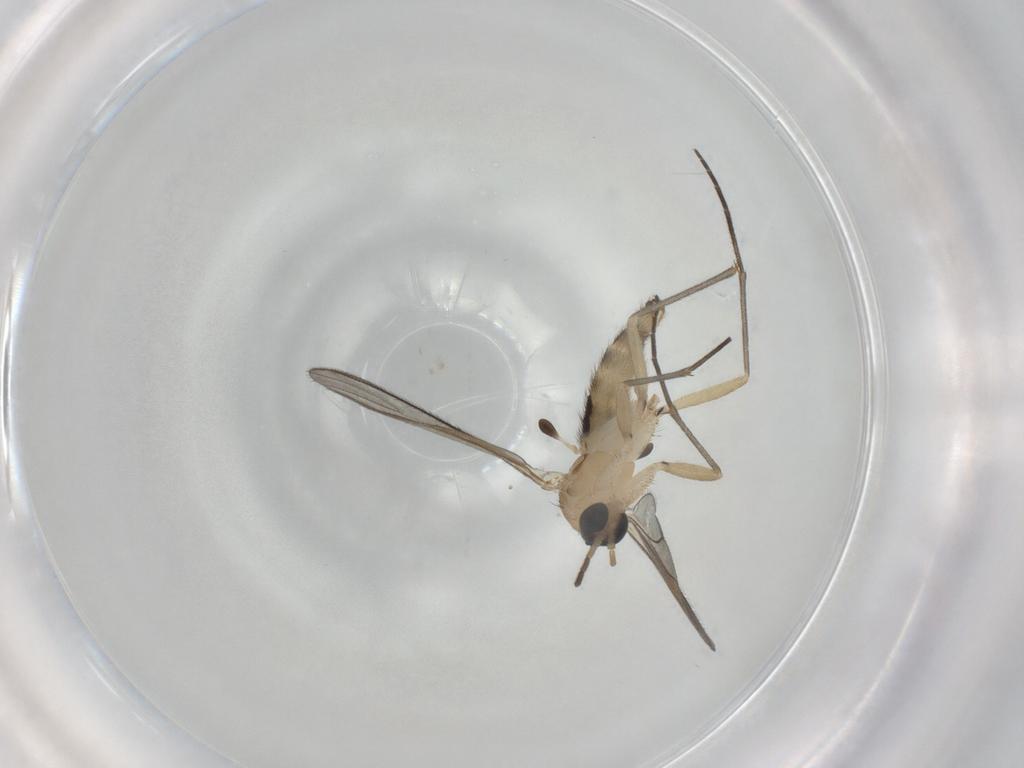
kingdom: Animalia
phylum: Arthropoda
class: Insecta
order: Diptera
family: Sciaridae
